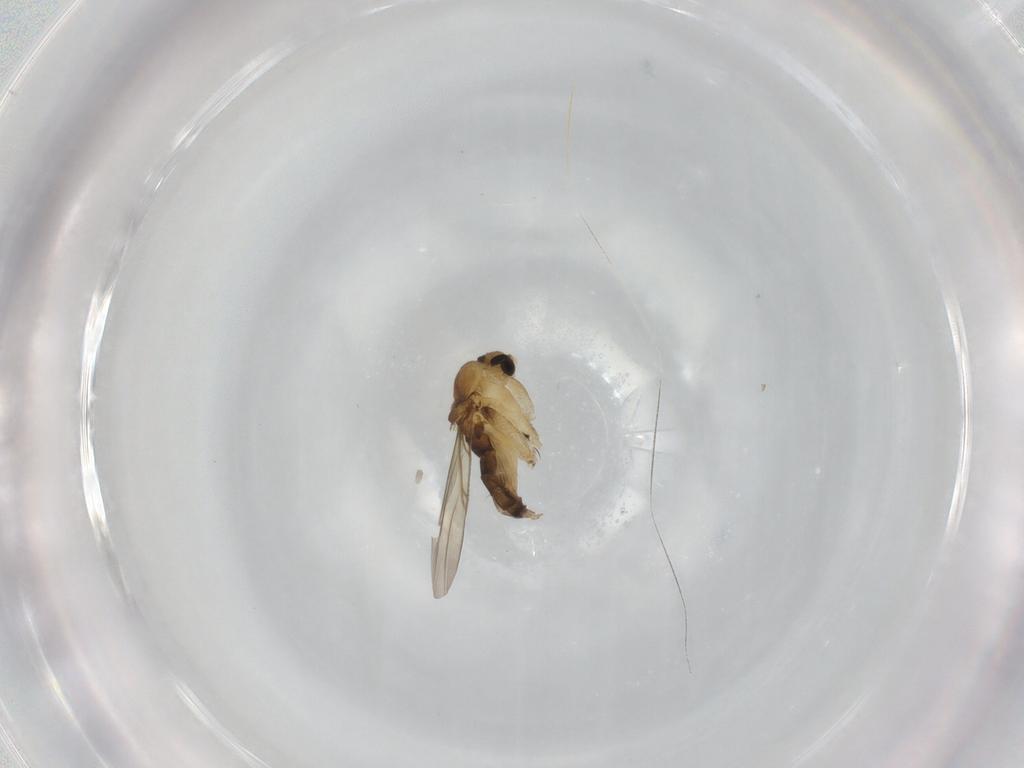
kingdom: Animalia
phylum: Arthropoda
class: Insecta
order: Diptera
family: Phoridae
